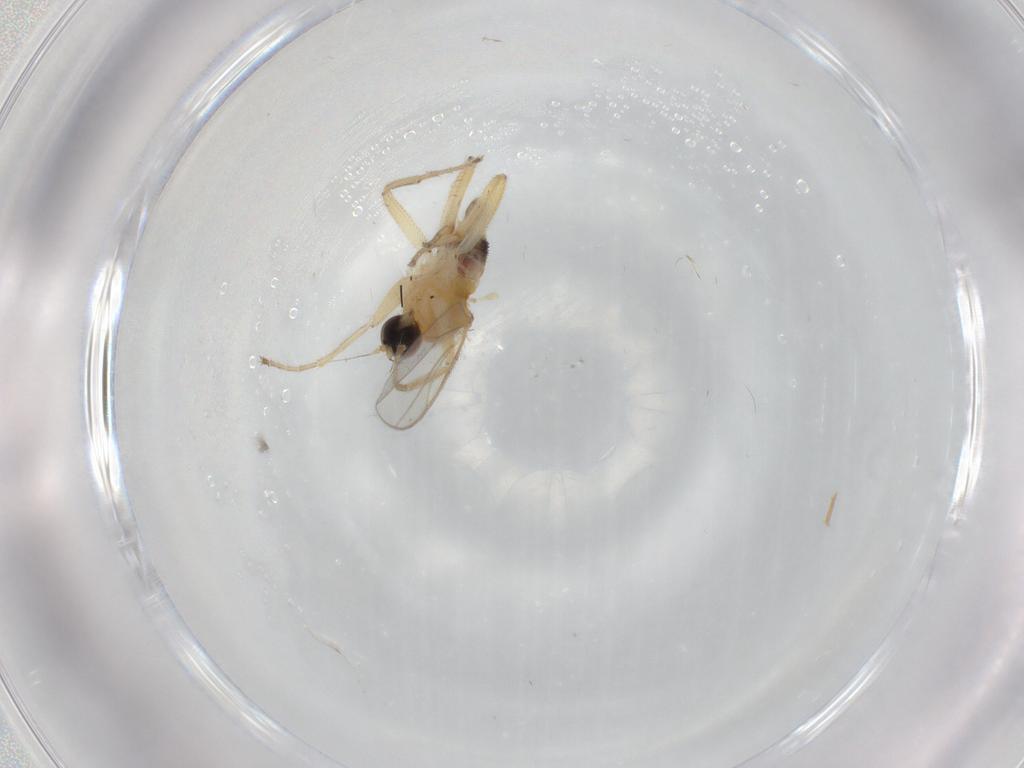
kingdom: Animalia
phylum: Arthropoda
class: Insecta
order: Diptera
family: Hybotidae
